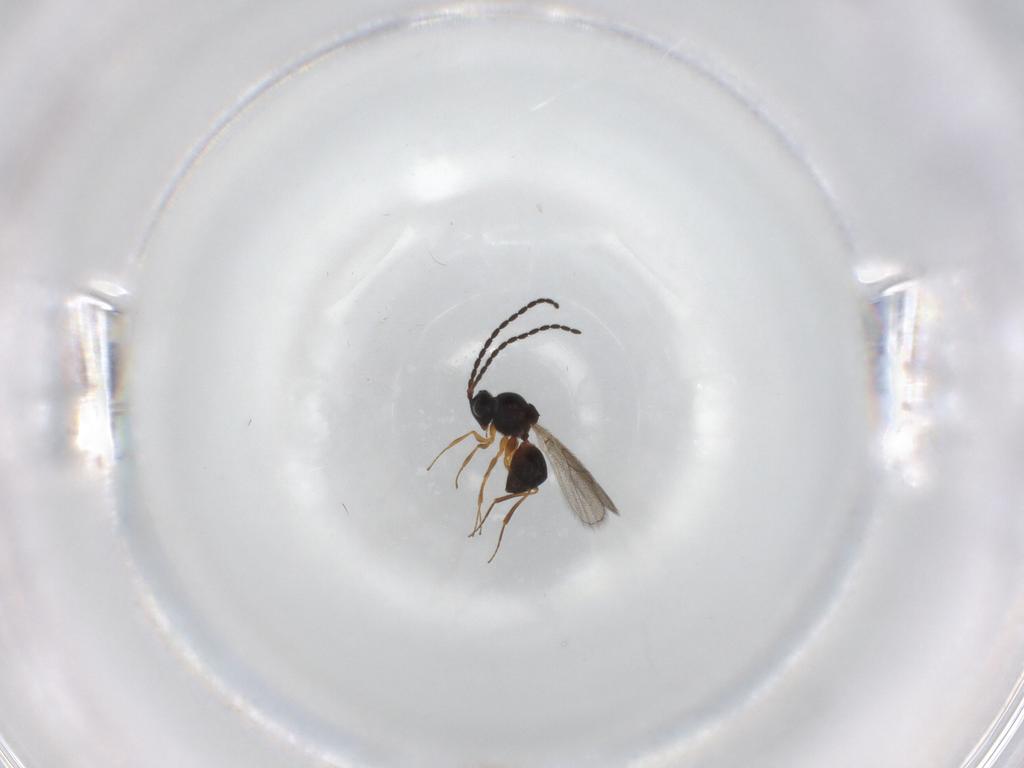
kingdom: Animalia
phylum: Arthropoda
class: Insecta
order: Hymenoptera
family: Figitidae
